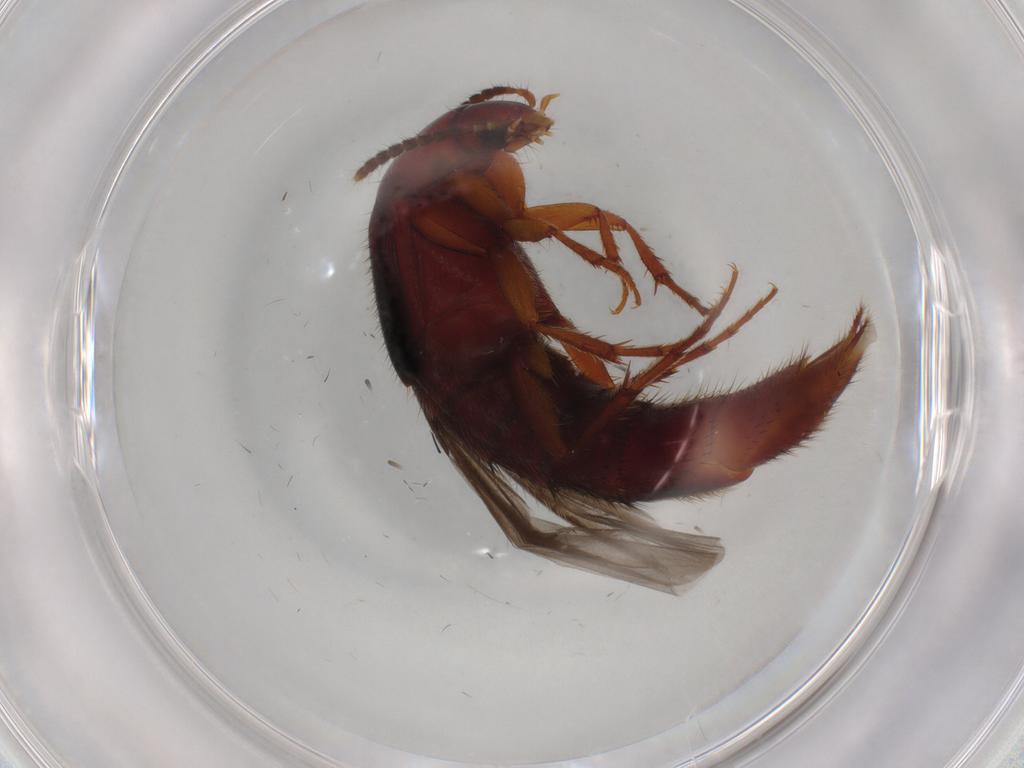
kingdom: Animalia
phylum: Arthropoda
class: Insecta
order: Coleoptera
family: Staphylinidae
